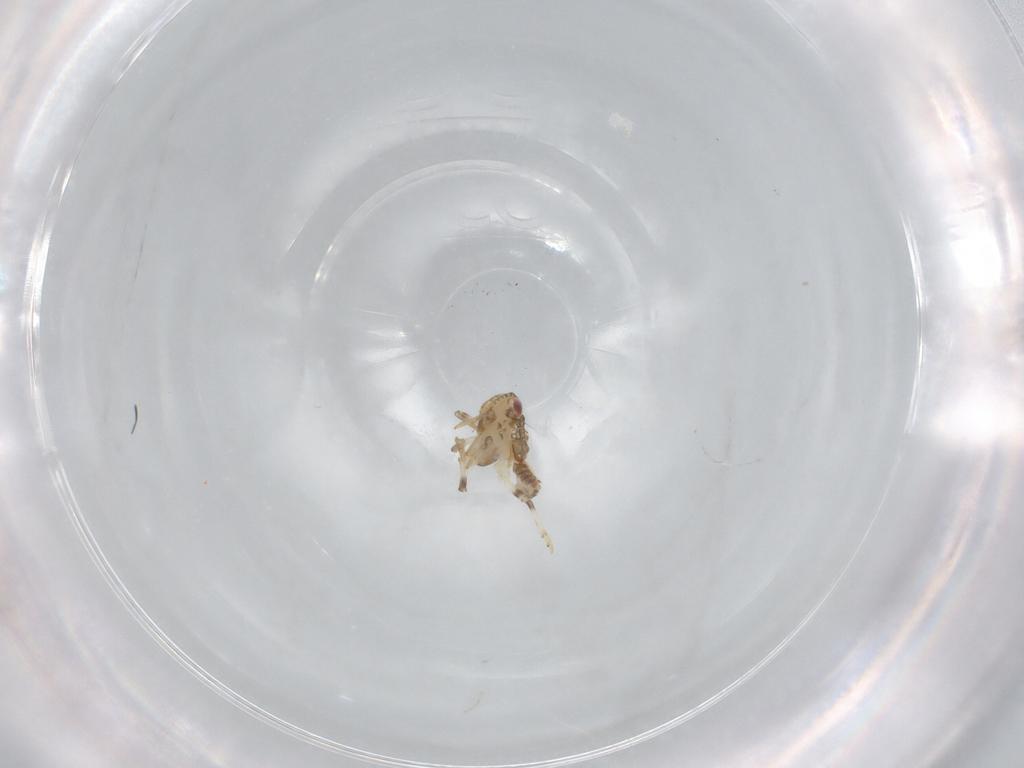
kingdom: Animalia
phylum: Arthropoda
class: Insecta
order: Hemiptera
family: Issidae
